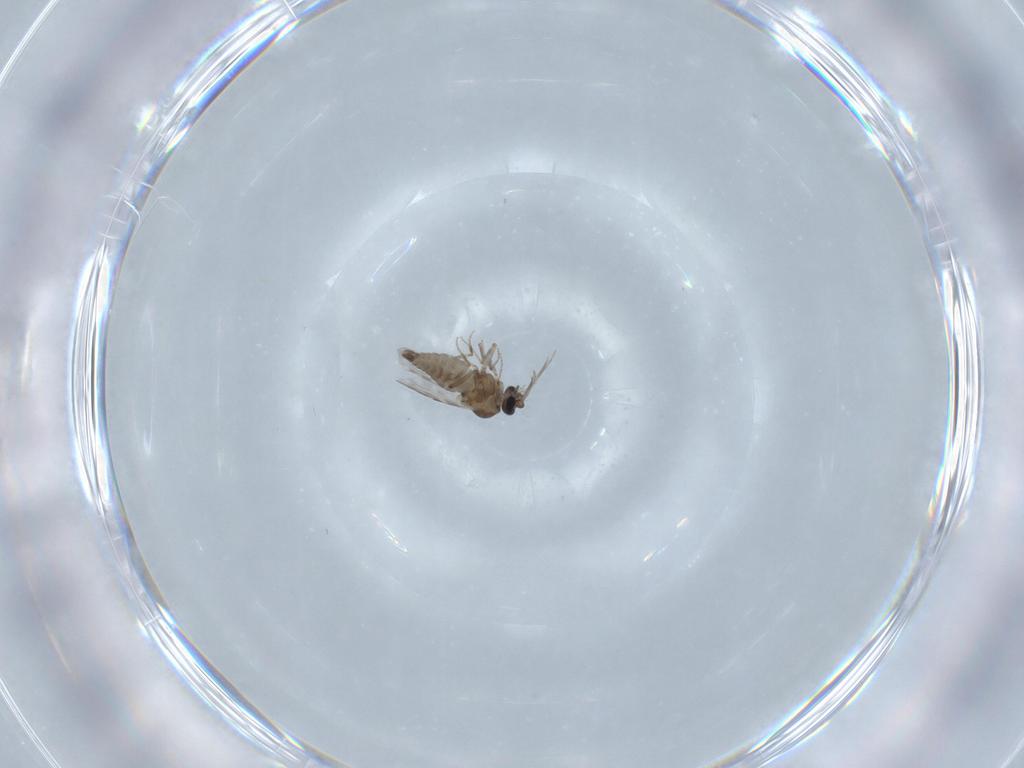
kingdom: Animalia
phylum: Arthropoda
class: Insecta
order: Diptera
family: Ceratopogonidae
